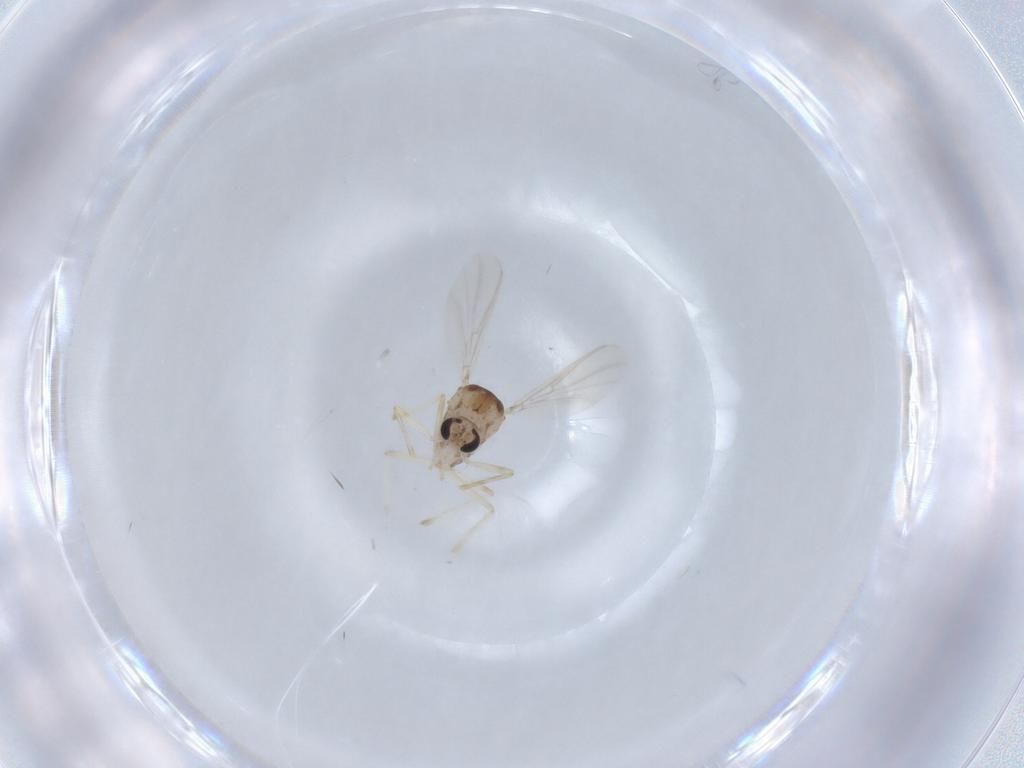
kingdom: Animalia
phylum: Arthropoda
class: Insecta
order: Diptera
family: Chironomidae
